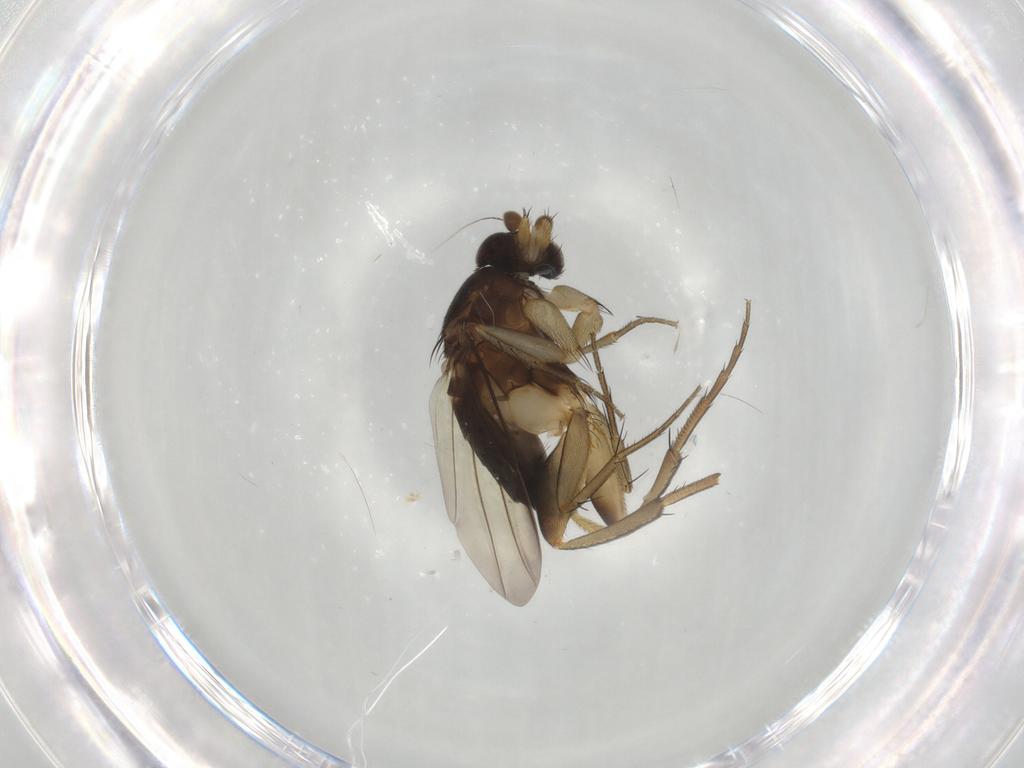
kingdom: Animalia
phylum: Arthropoda
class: Insecta
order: Diptera
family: Phoridae
